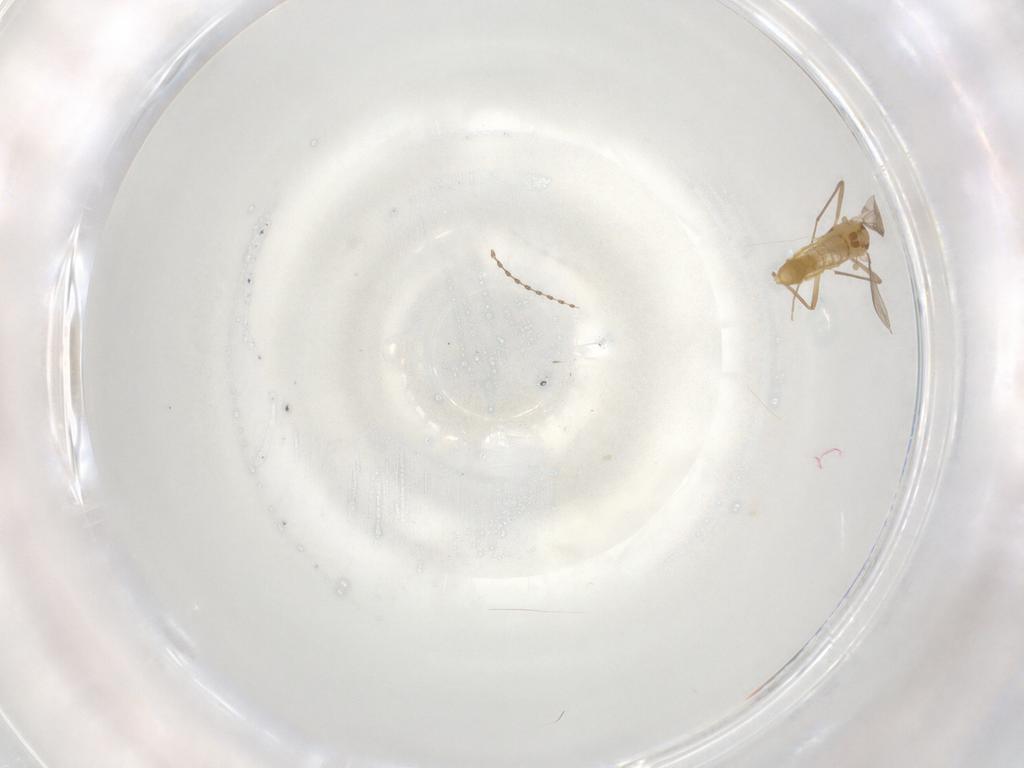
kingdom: Animalia
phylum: Arthropoda
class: Insecta
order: Diptera
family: Chironomidae
